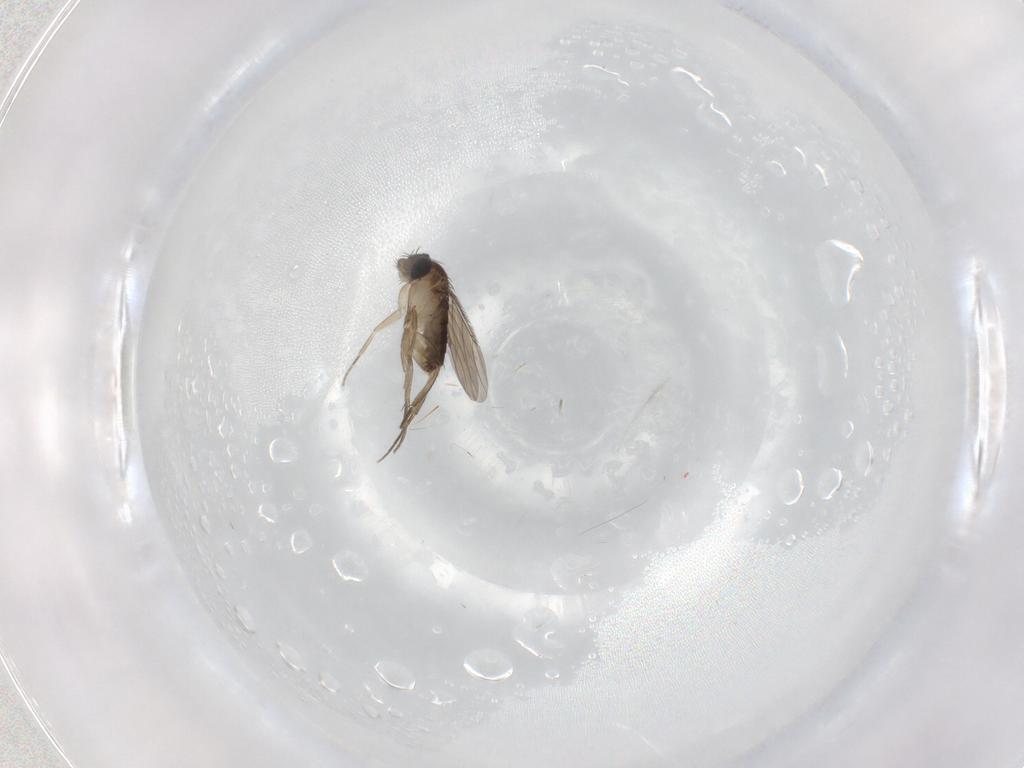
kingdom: Animalia
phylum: Arthropoda
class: Insecta
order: Diptera
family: Phoridae
